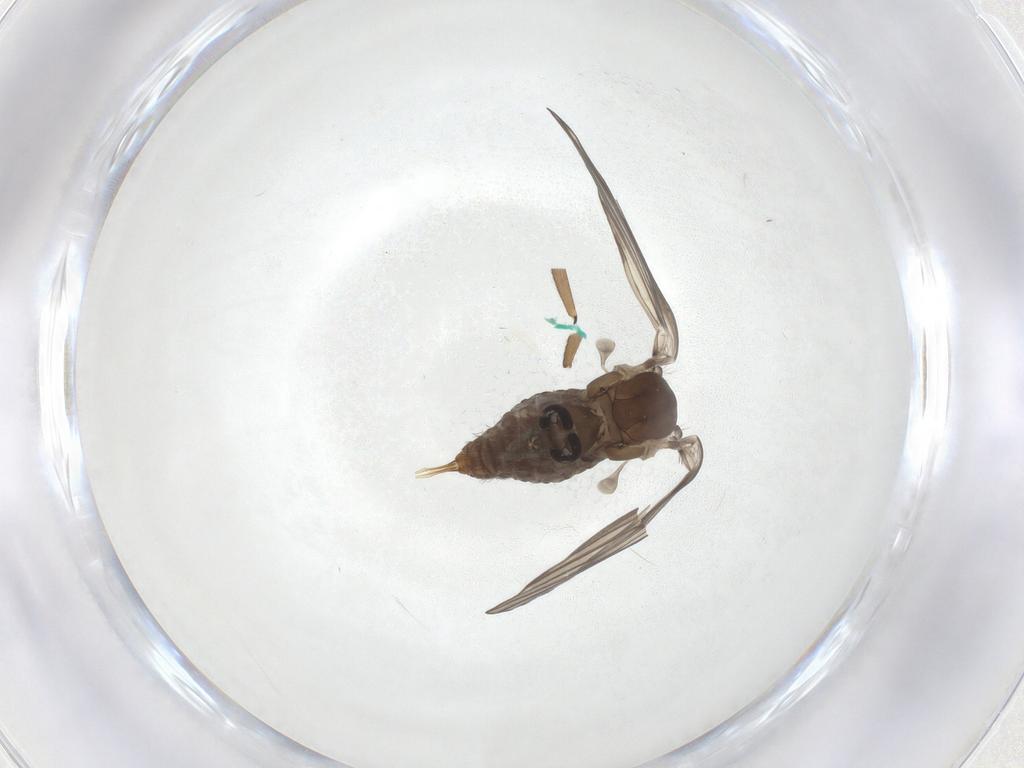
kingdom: Animalia
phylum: Arthropoda
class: Insecta
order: Diptera
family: Psychodidae
